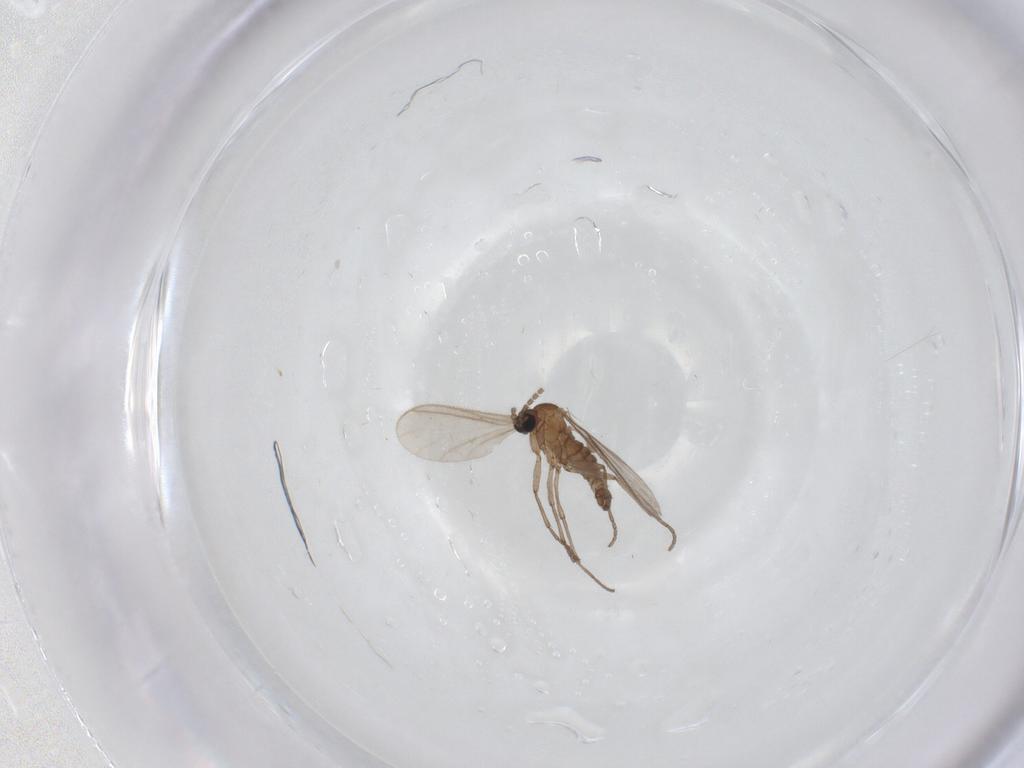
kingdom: Animalia
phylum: Arthropoda
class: Insecta
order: Diptera
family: Sciaridae
